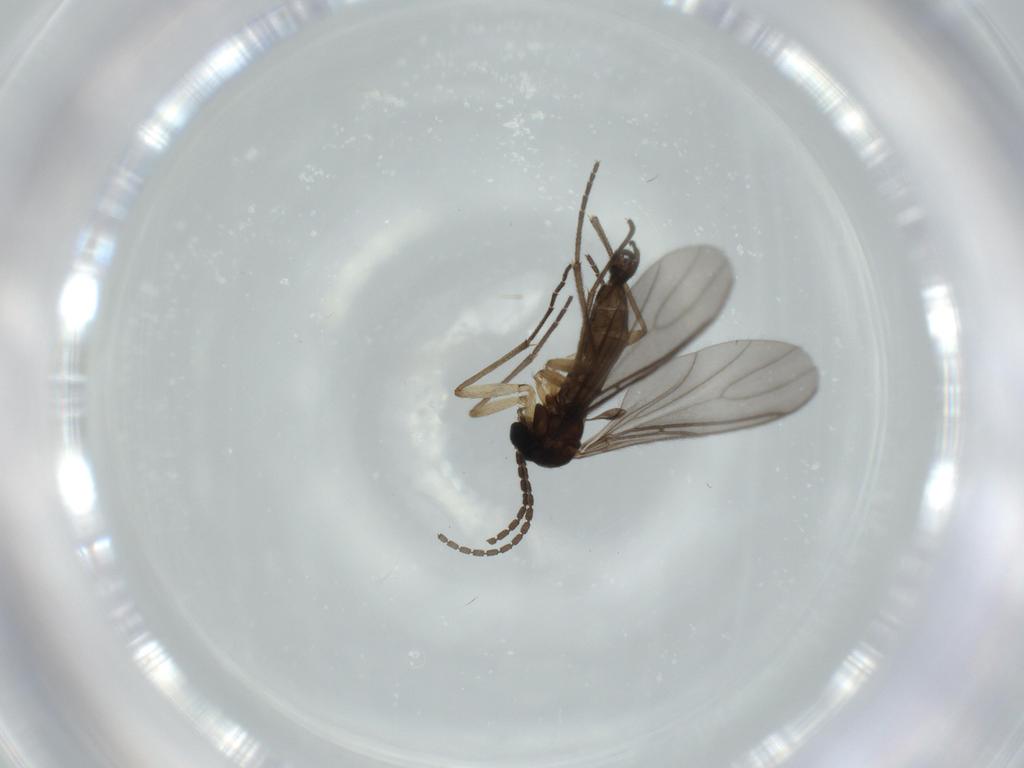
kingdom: Animalia
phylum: Arthropoda
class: Insecta
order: Diptera
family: Sciaridae
